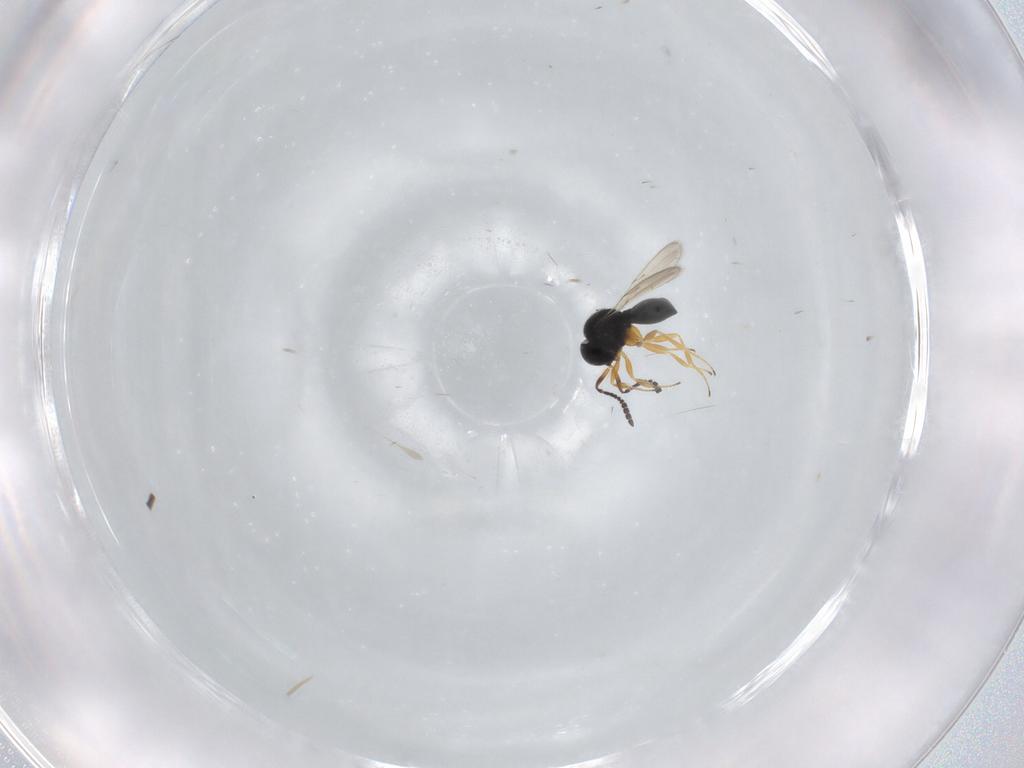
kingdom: Animalia
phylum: Arthropoda
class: Insecta
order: Hymenoptera
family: Scelionidae
